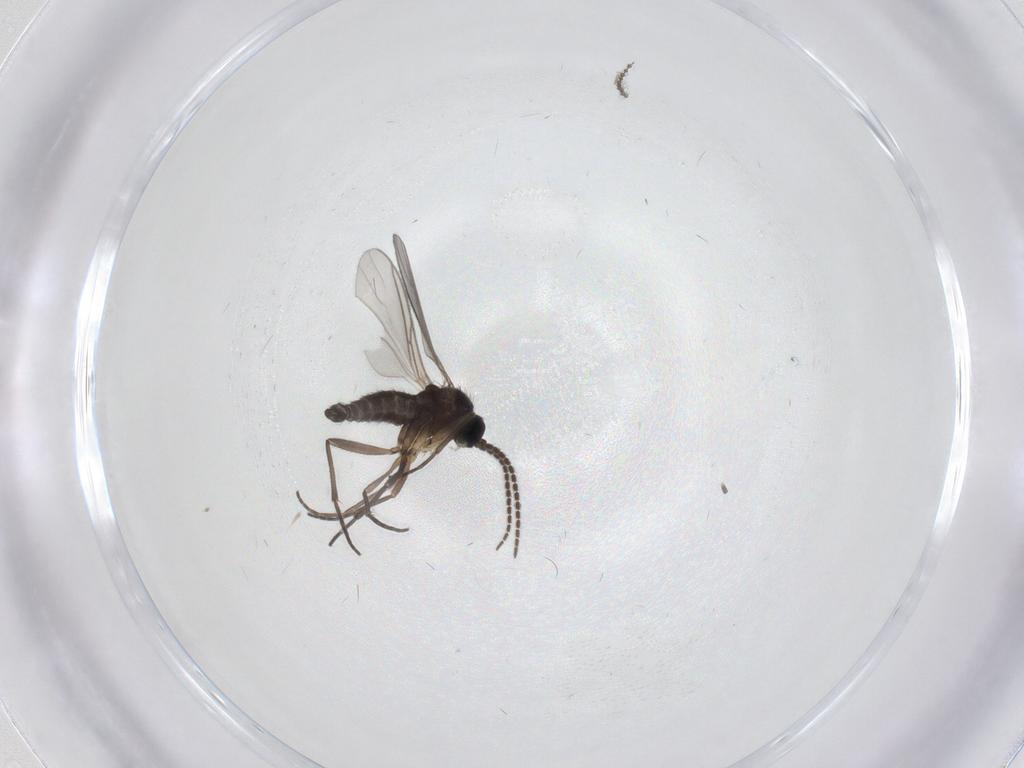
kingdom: Animalia
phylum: Arthropoda
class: Insecta
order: Diptera
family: Sciaridae
